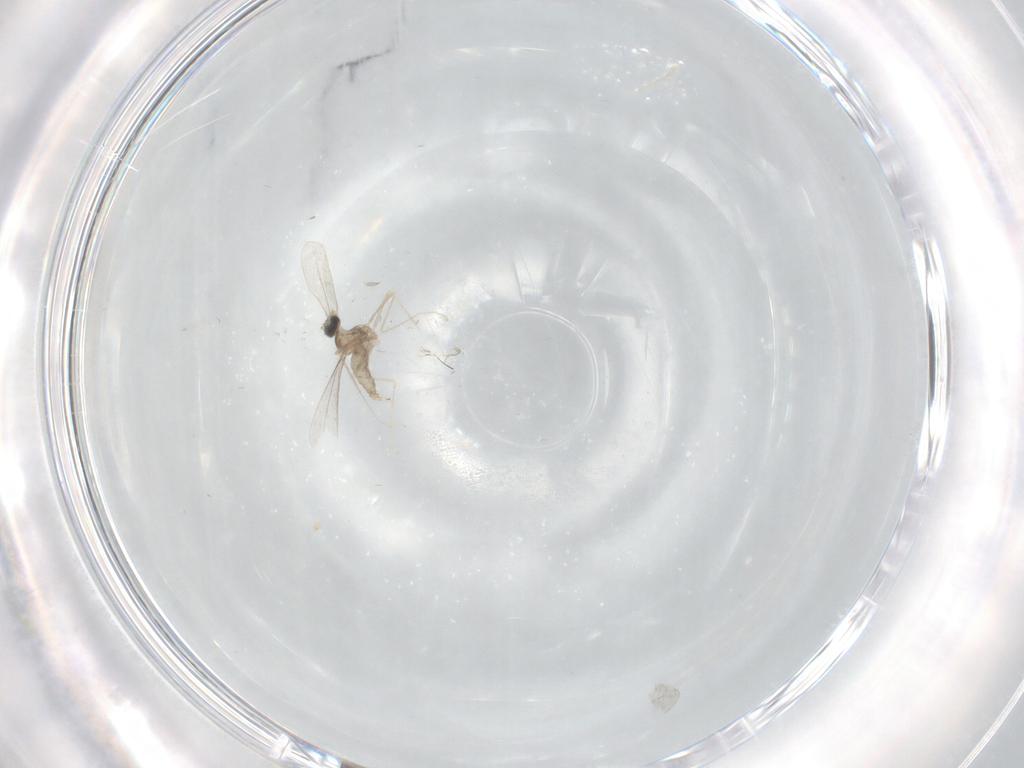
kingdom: Animalia
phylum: Arthropoda
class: Insecta
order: Diptera
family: Cecidomyiidae
